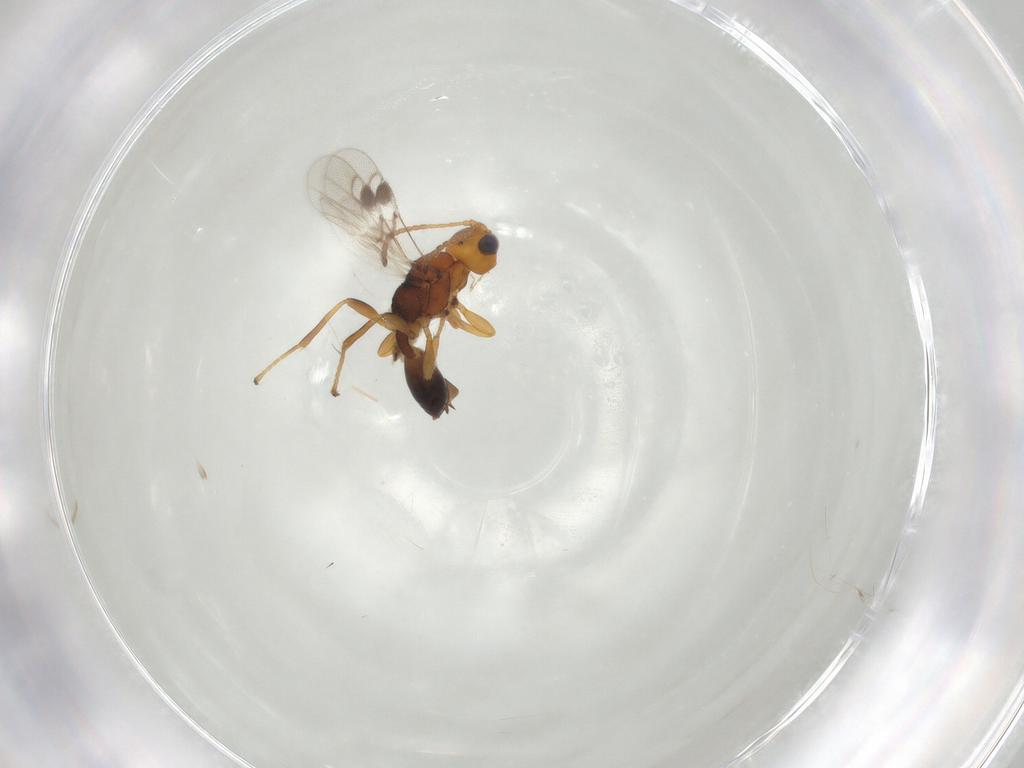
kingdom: Animalia
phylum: Arthropoda
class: Insecta
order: Hymenoptera
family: Braconidae
